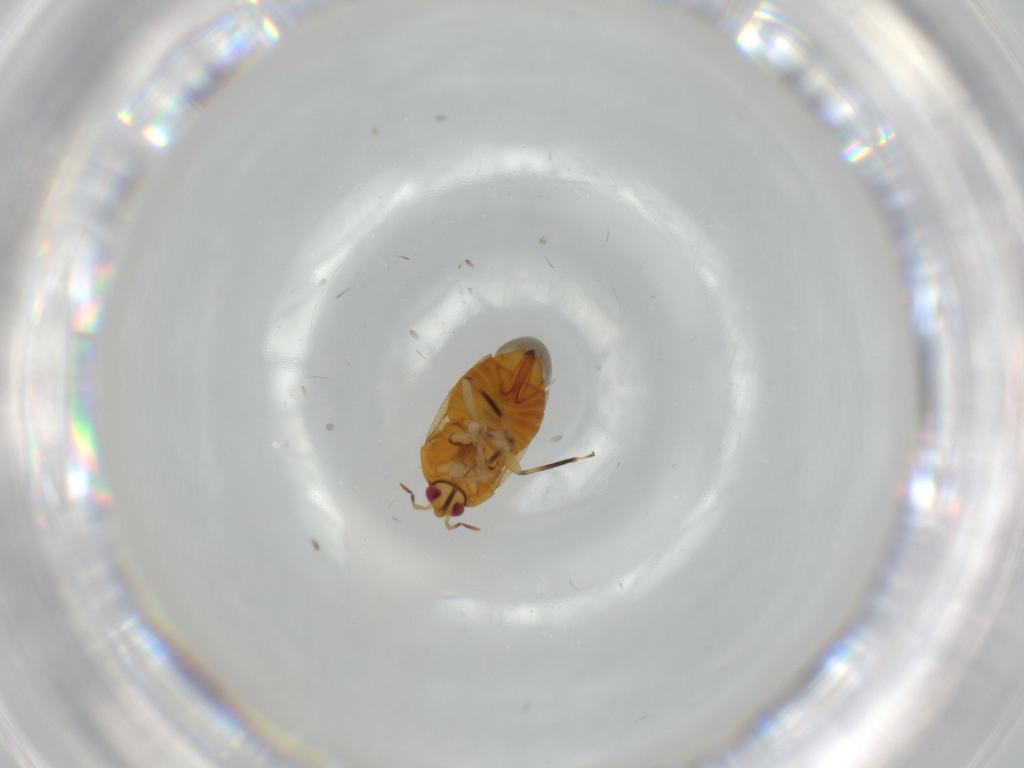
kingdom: Animalia
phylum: Arthropoda
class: Insecta
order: Hemiptera
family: Anthocoridae
